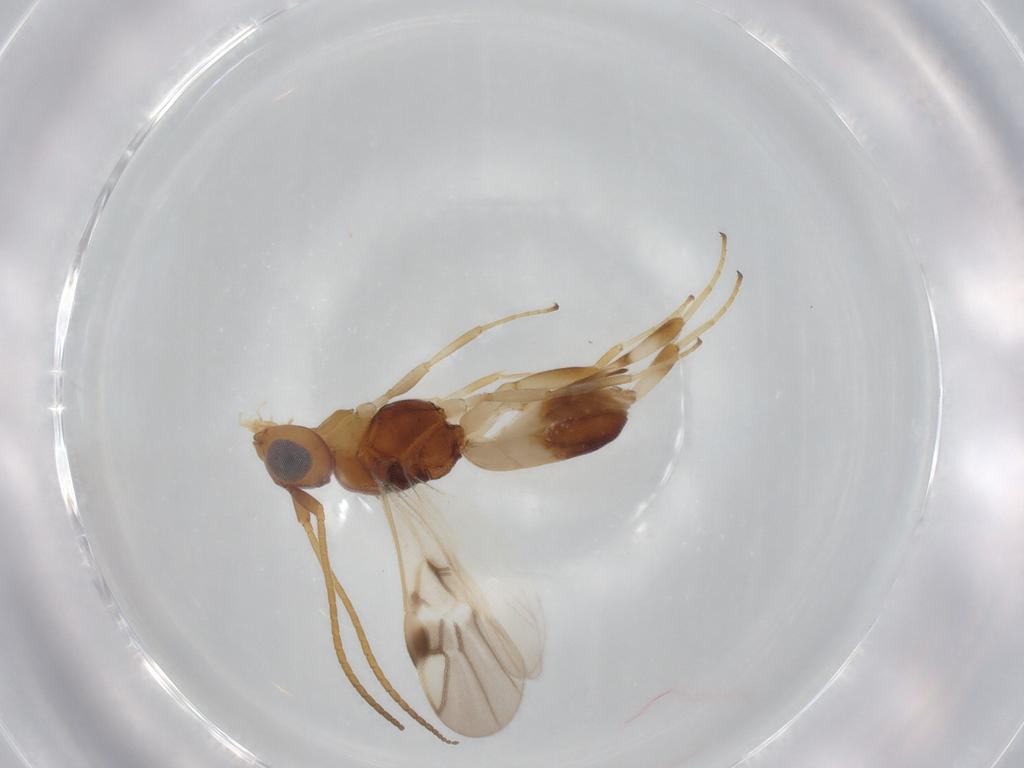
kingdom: Animalia
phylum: Arthropoda
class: Insecta
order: Hymenoptera
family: Braconidae
